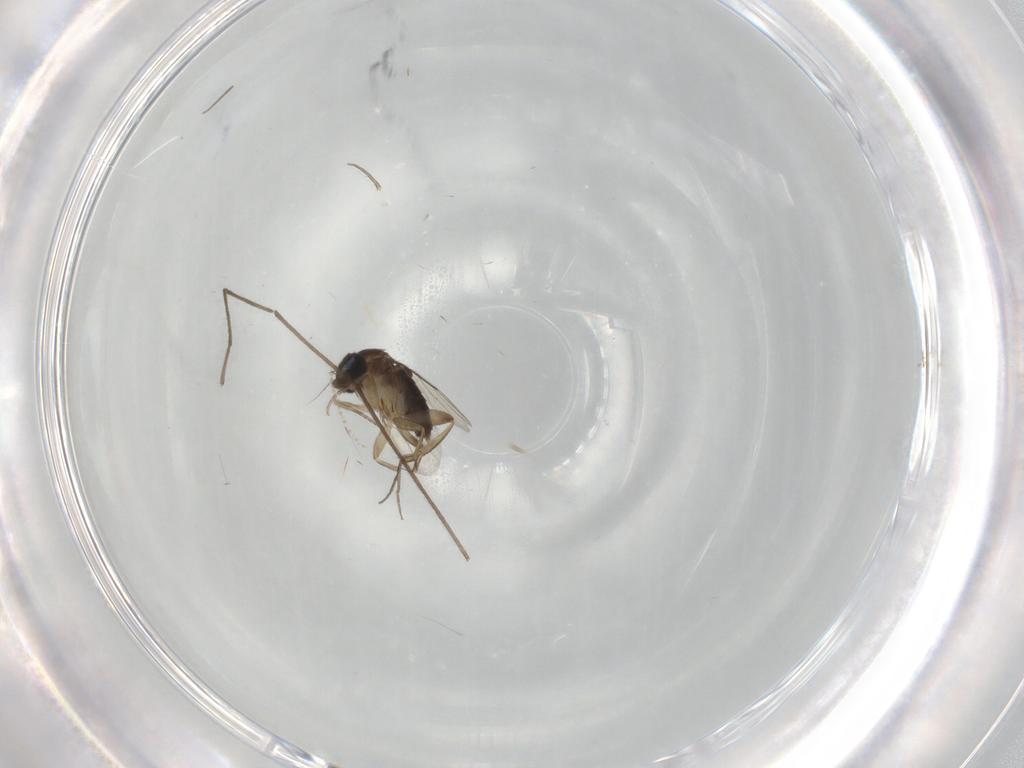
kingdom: Animalia
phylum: Arthropoda
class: Insecta
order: Diptera
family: Phoridae
